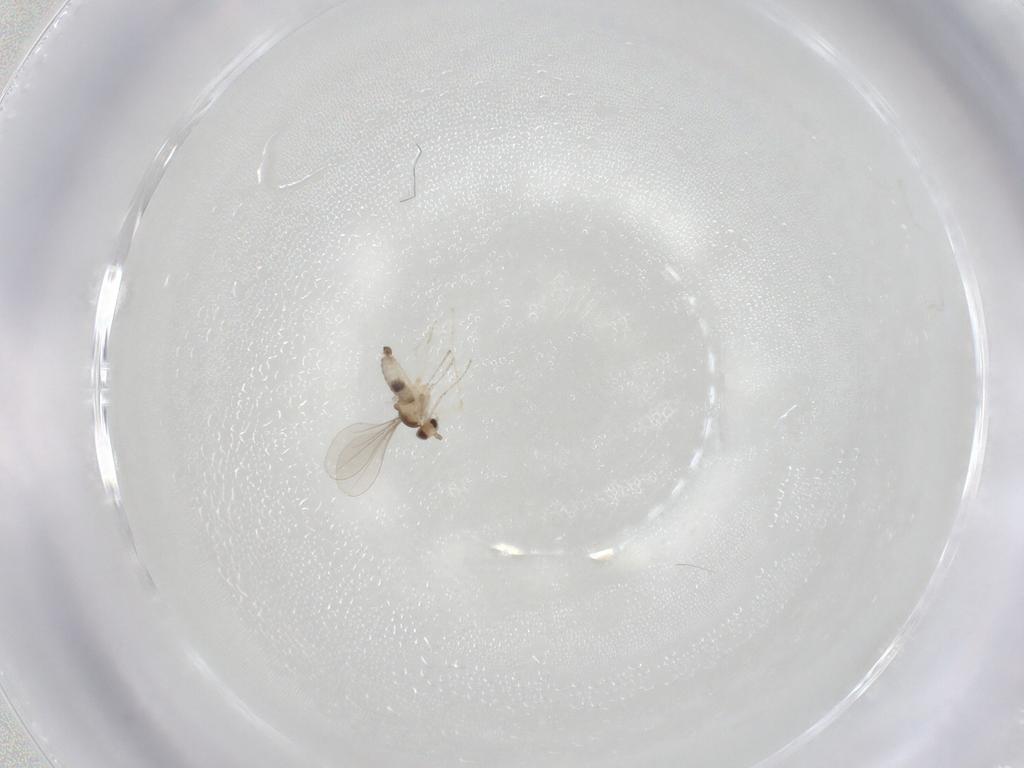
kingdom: Animalia
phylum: Arthropoda
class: Insecta
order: Diptera
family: Cecidomyiidae
